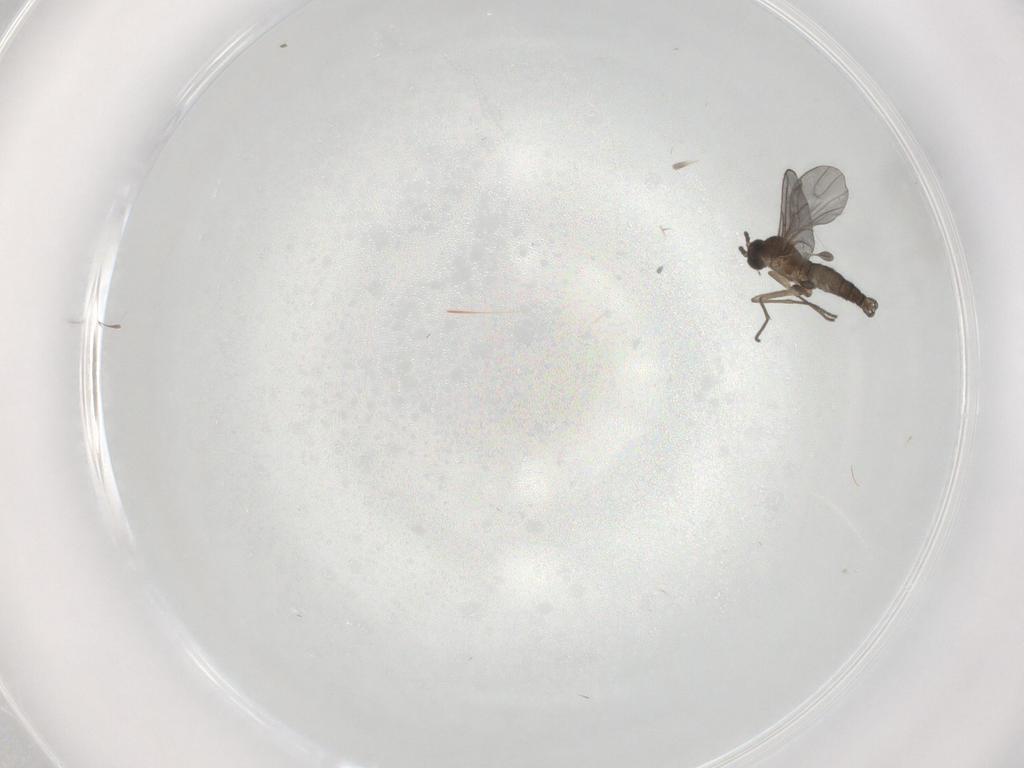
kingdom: Animalia
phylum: Arthropoda
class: Insecta
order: Diptera
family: Sciaridae
